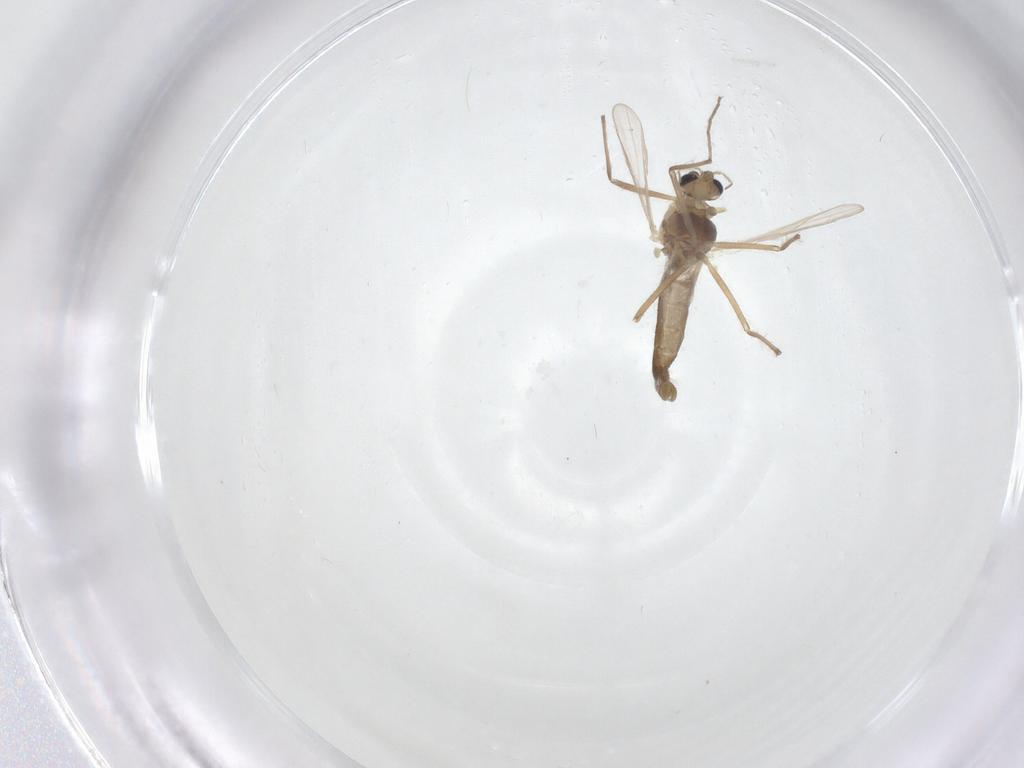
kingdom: Animalia
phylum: Arthropoda
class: Insecta
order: Diptera
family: Chironomidae
